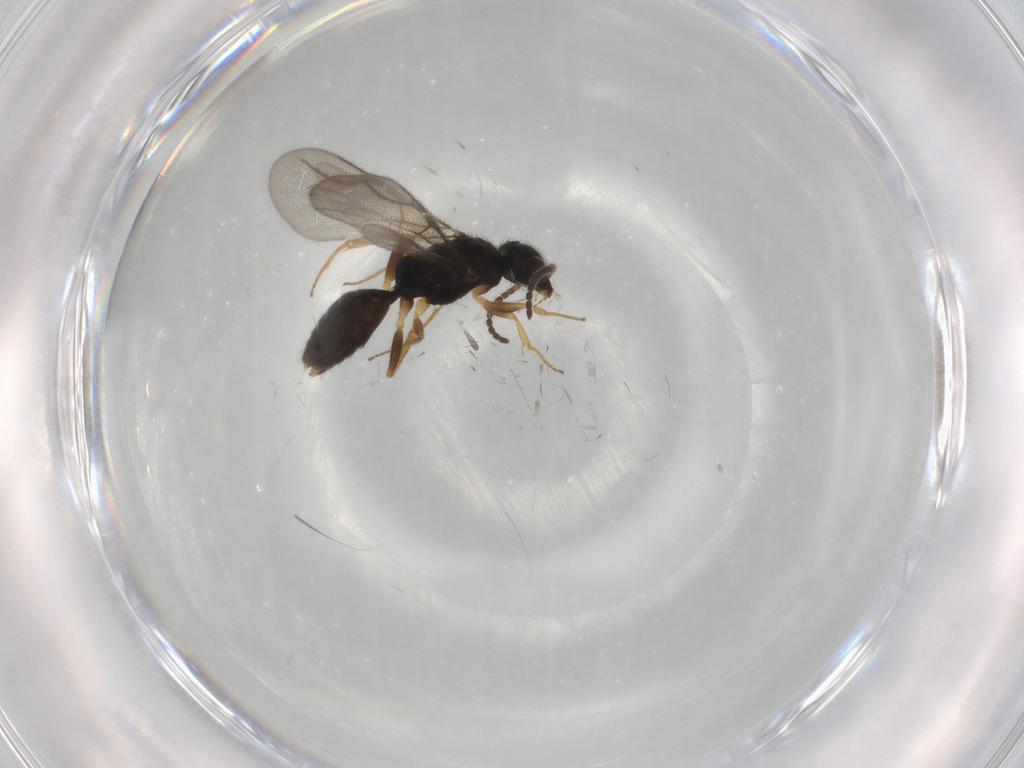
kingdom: Animalia
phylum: Arthropoda
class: Insecta
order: Hymenoptera
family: Bethylidae
